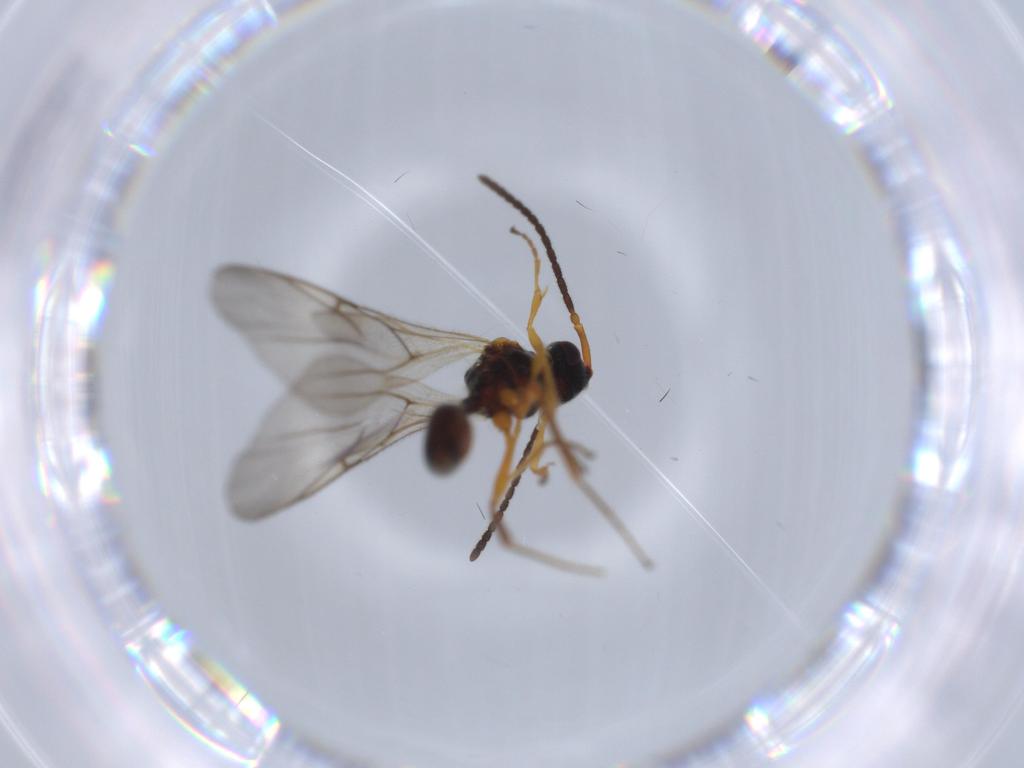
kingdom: Animalia
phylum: Arthropoda
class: Insecta
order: Hymenoptera
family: Diapriidae
